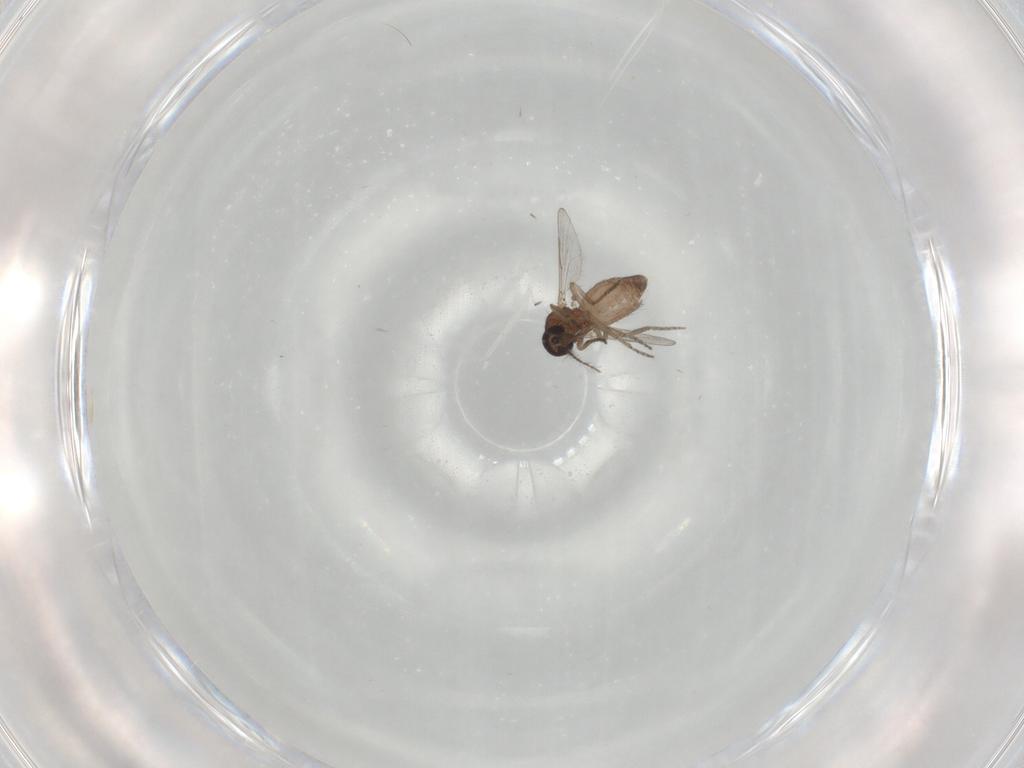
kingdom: Animalia
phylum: Arthropoda
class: Insecta
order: Diptera
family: Ceratopogonidae
